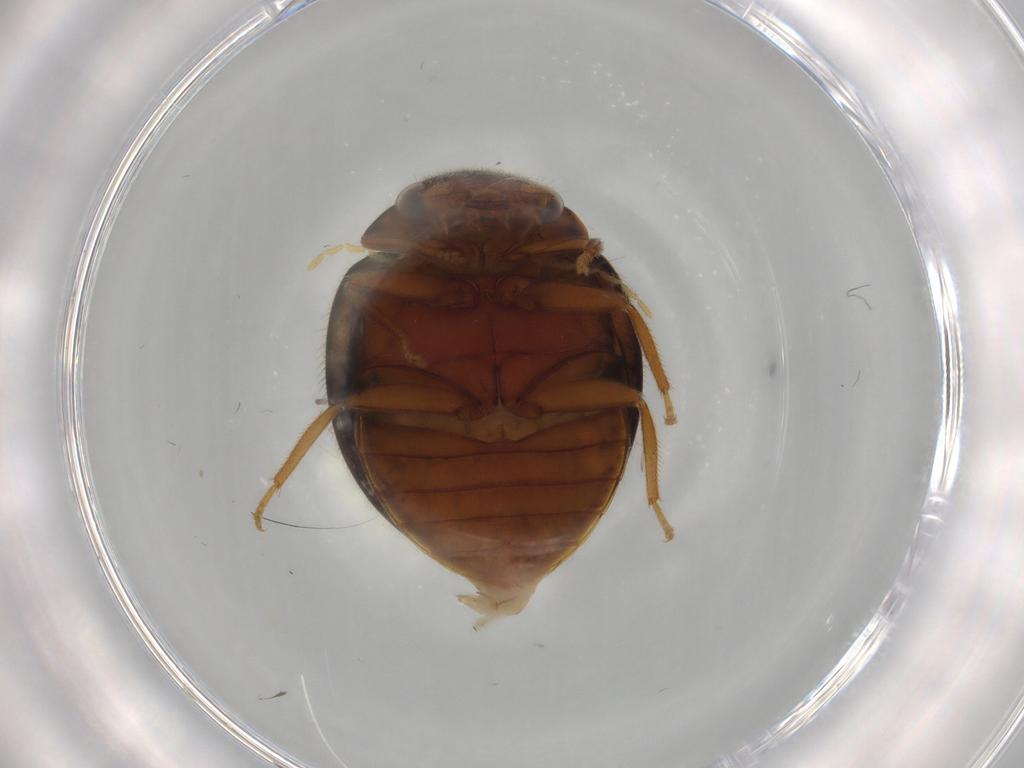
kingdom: Animalia
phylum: Arthropoda
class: Insecta
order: Coleoptera
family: Scirtidae
